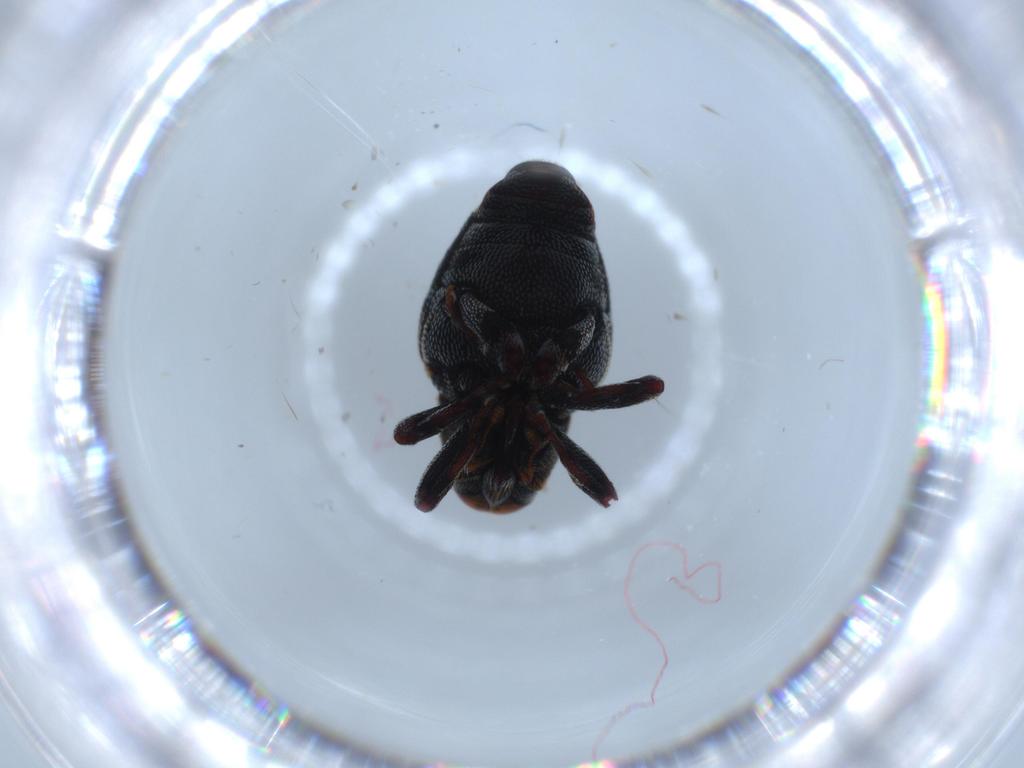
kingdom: Animalia
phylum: Arthropoda
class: Insecta
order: Coleoptera
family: Curculionidae
